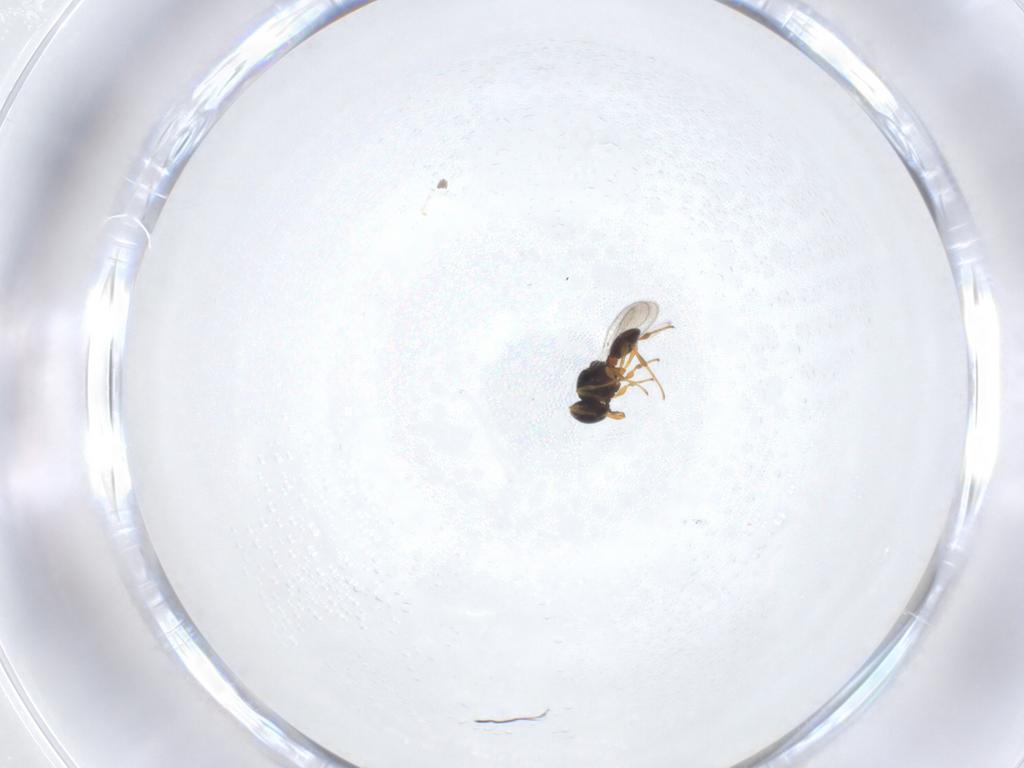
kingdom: Animalia
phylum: Arthropoda
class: Insecta
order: Hymenoptera
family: Platygastridae
